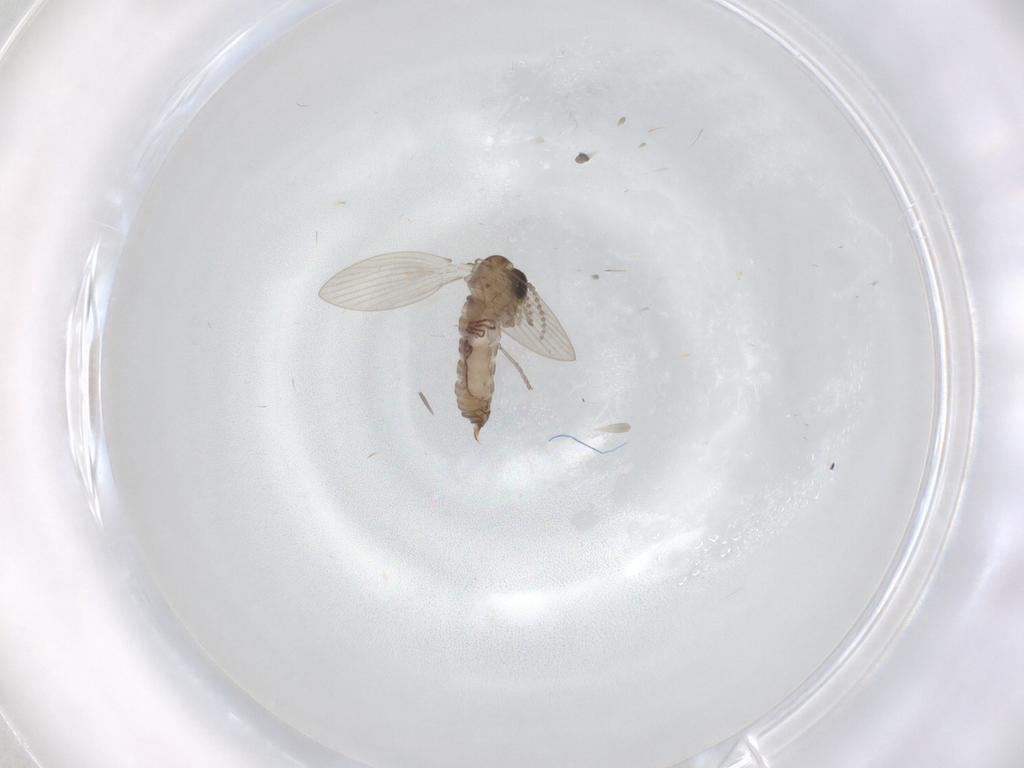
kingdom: Animalia
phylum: Arthropoda
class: Insecta
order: Diptera
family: Psychodidae
